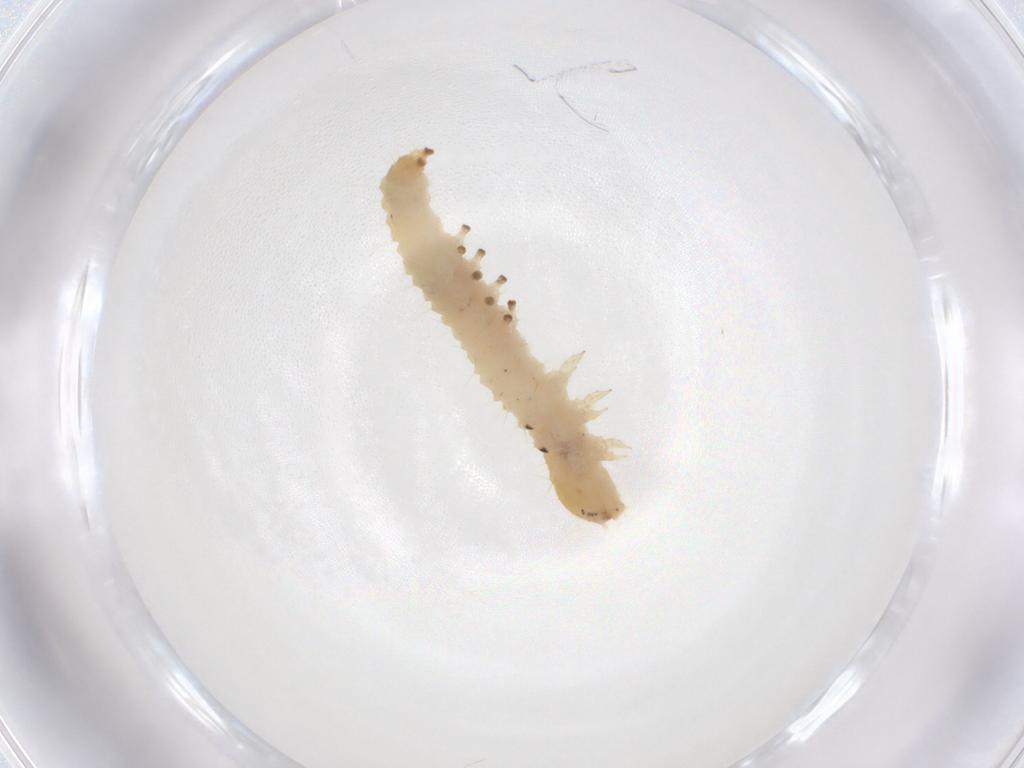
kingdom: Animalia
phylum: Arthropoda
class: Insecta
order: Lepidoptera
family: Crambidae
